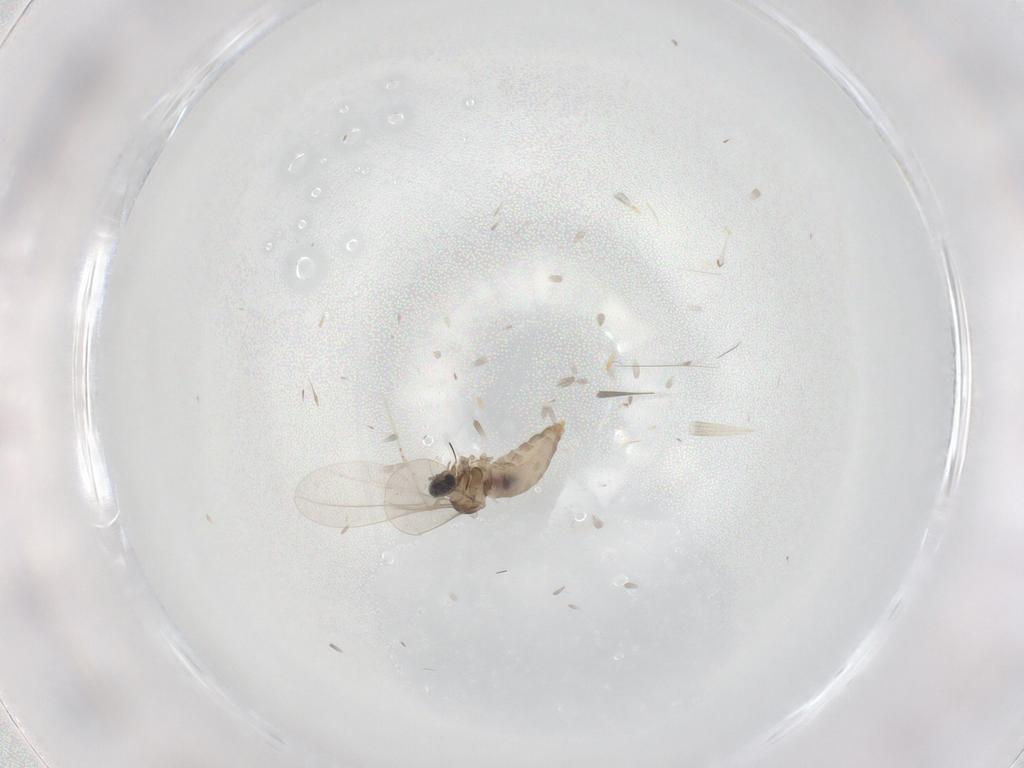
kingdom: Animalia
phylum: Arthropoda
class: Insecta
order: Diptera
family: Ceratopogonidae
